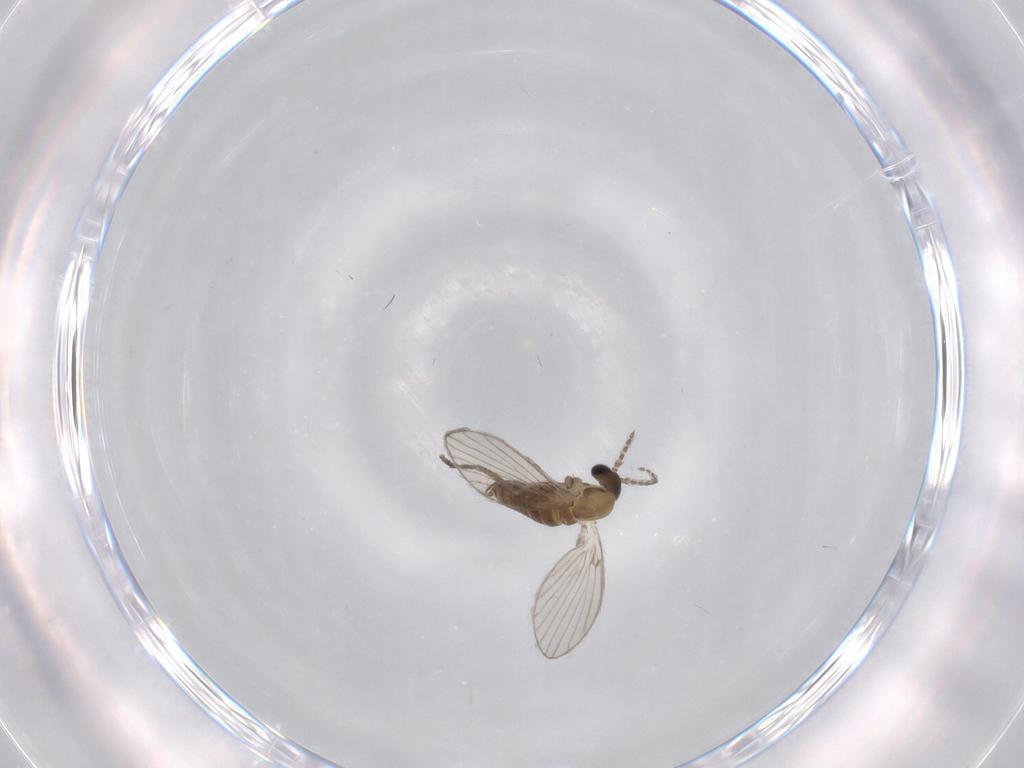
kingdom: Animalia
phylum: Arthropoda
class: Insecta
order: Diptera
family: Psychodidae
